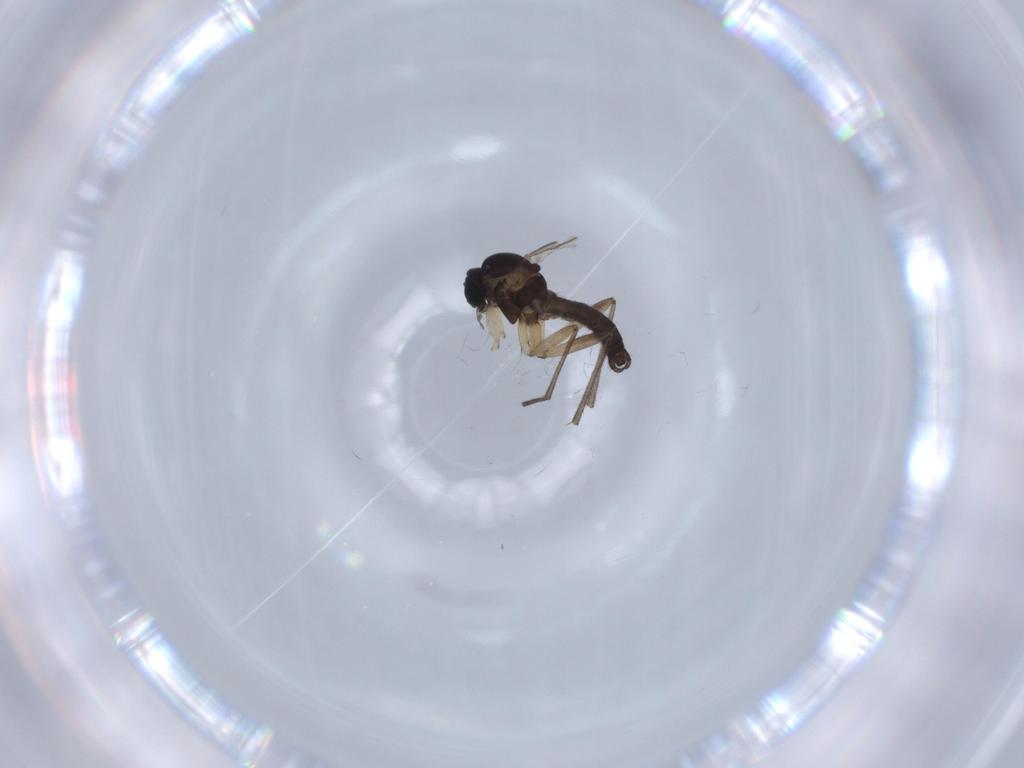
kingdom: Animalia
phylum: Arthropoda
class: Insecta
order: Diptera
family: Sciaridae
